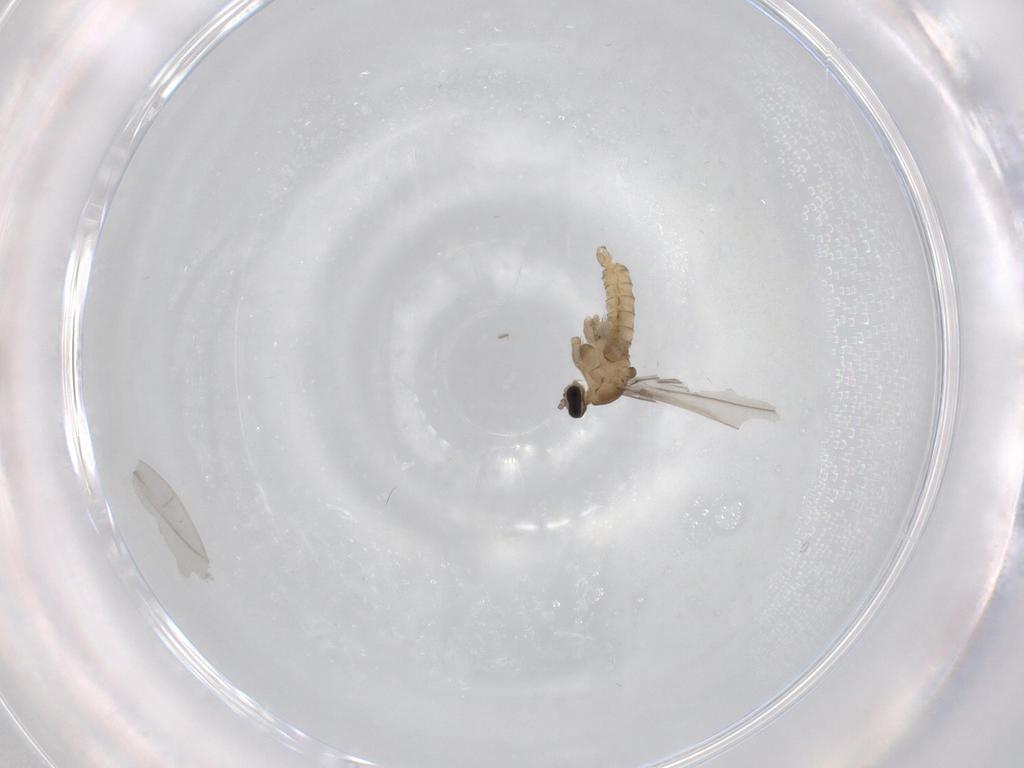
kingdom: Animalia
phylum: Arthropoda
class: Insecta
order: Diptera
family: Cecidomyiidae
